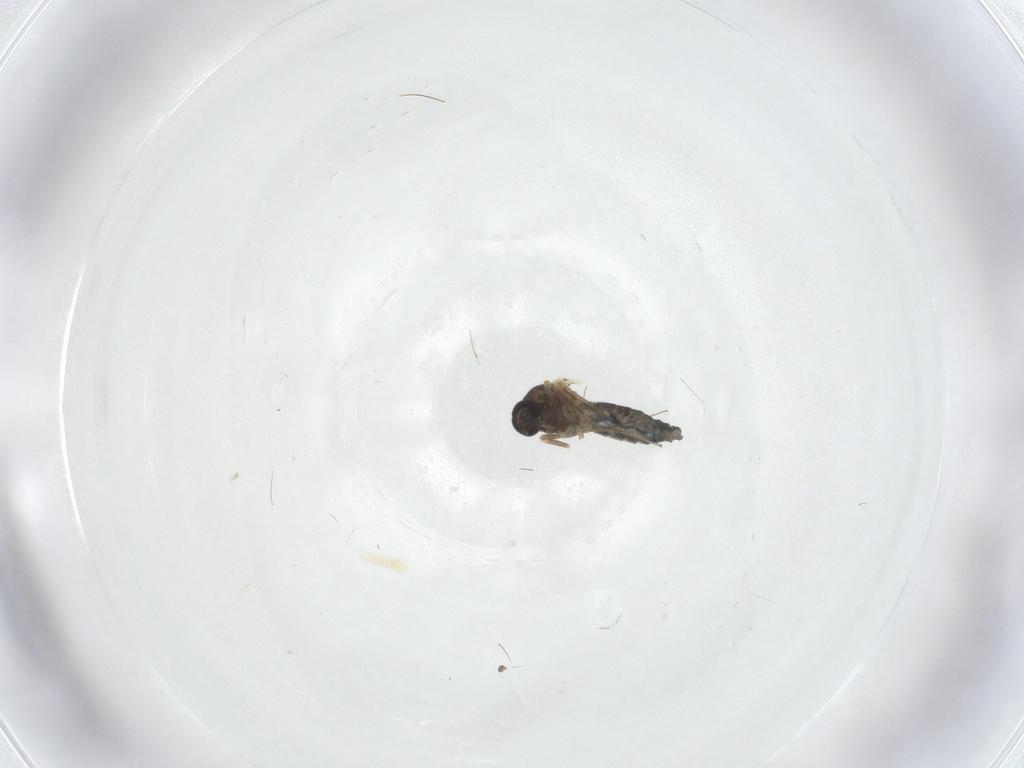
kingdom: Animalia
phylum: Arthropoda
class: Insecta
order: Diptera
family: Ceratopogonidae
